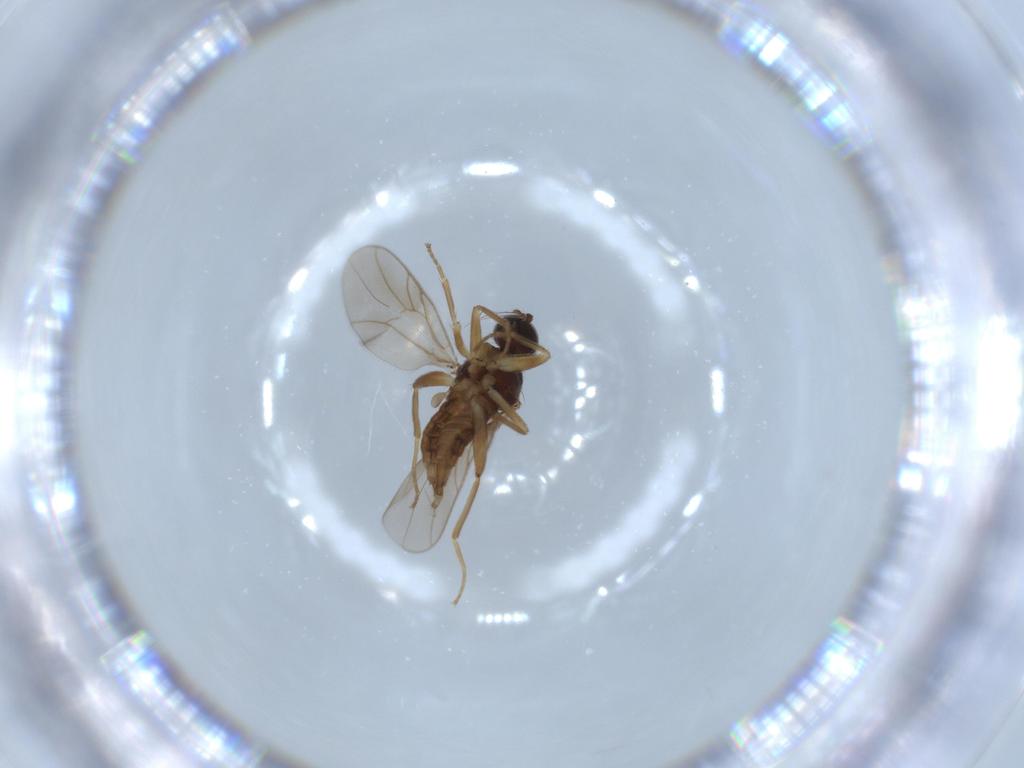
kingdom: Animalia
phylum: Arthropoda
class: Insecta
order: Diptera
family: Hybotidae
